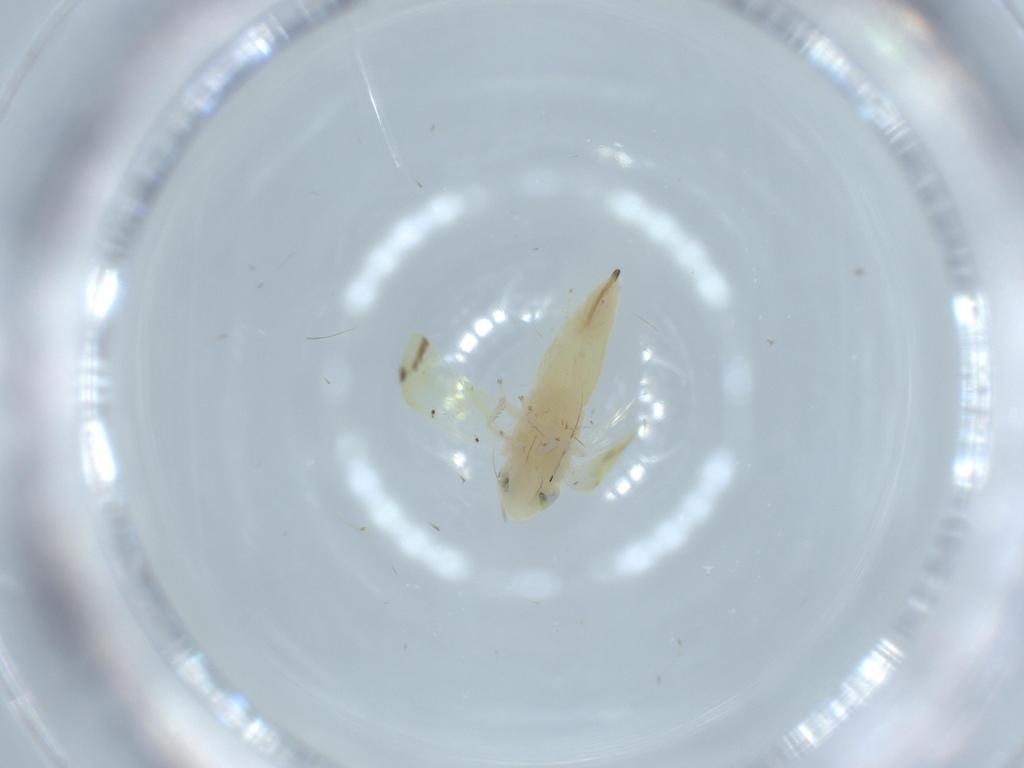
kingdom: Animalia
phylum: Arthropoda
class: Insecta
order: Hemiptera
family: Cicadellidae
